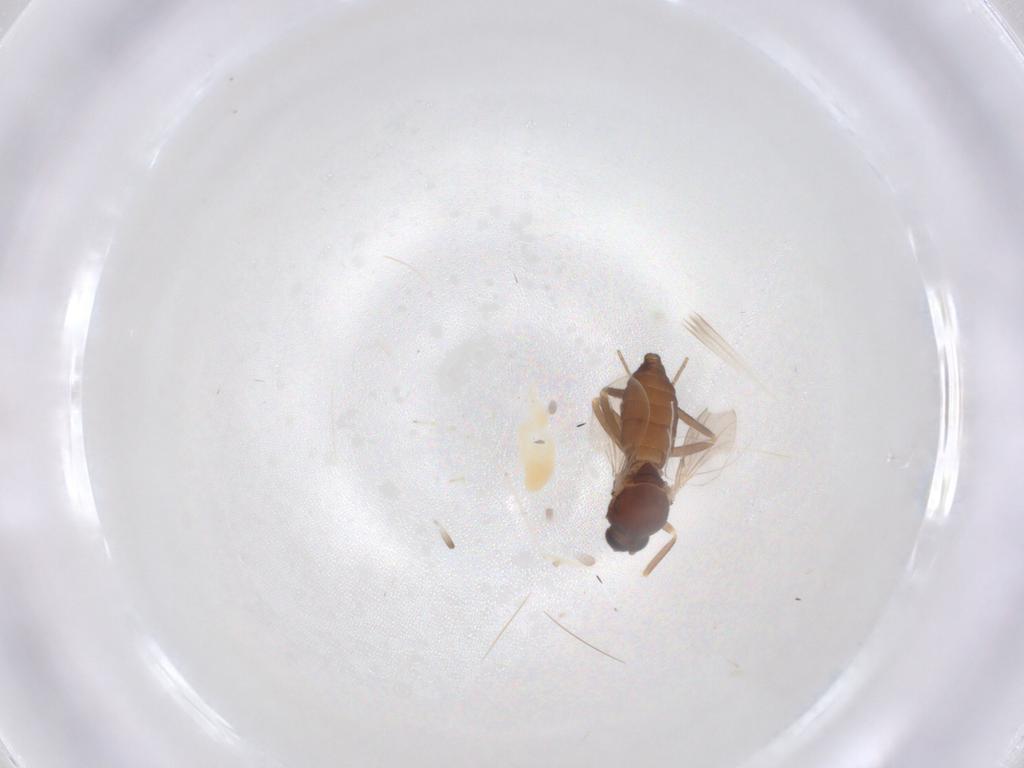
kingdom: Animalia
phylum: Arthropoda
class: Insecta
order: Diptera
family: Ceratopogonidae
